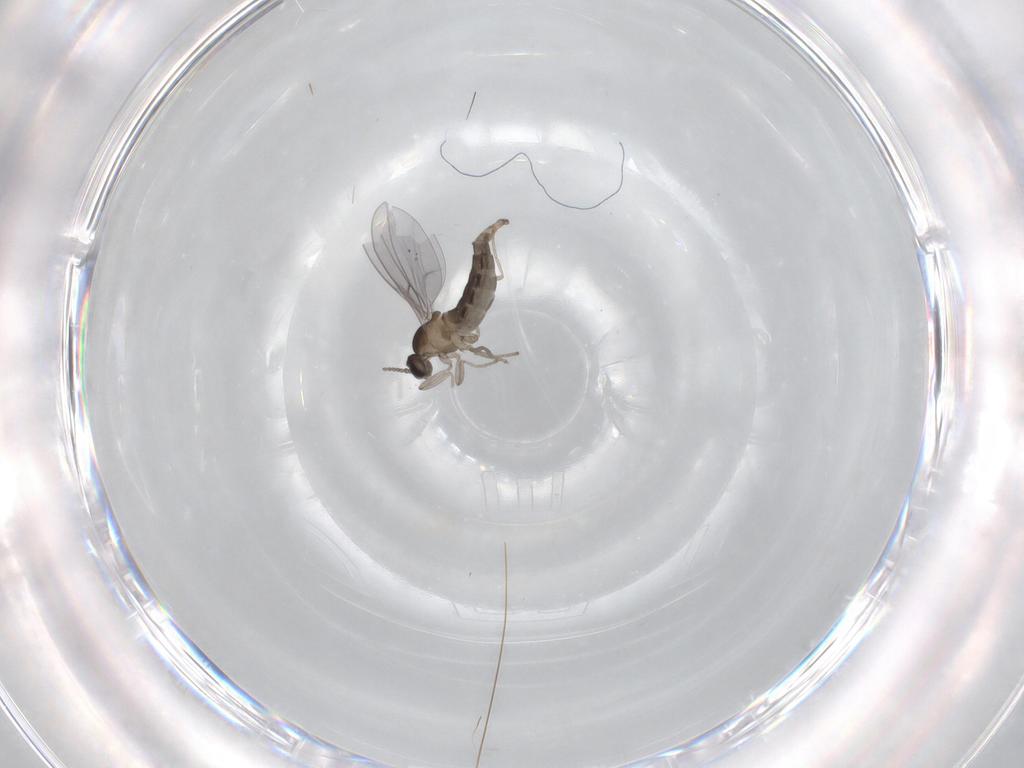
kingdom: Animalia
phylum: Arthropoda
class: Insecta
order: Diptera
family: Cecidomyiidae
